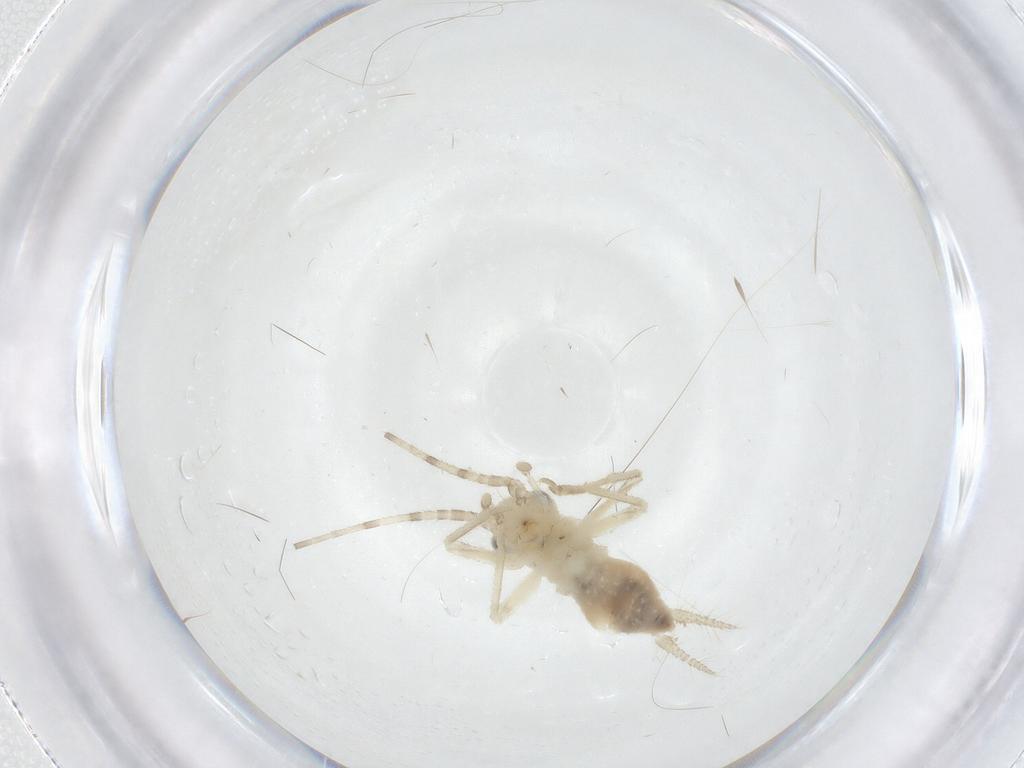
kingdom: Animalia
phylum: Arthropoda
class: Insecta
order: Orthoptera
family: Trigonidiidae
